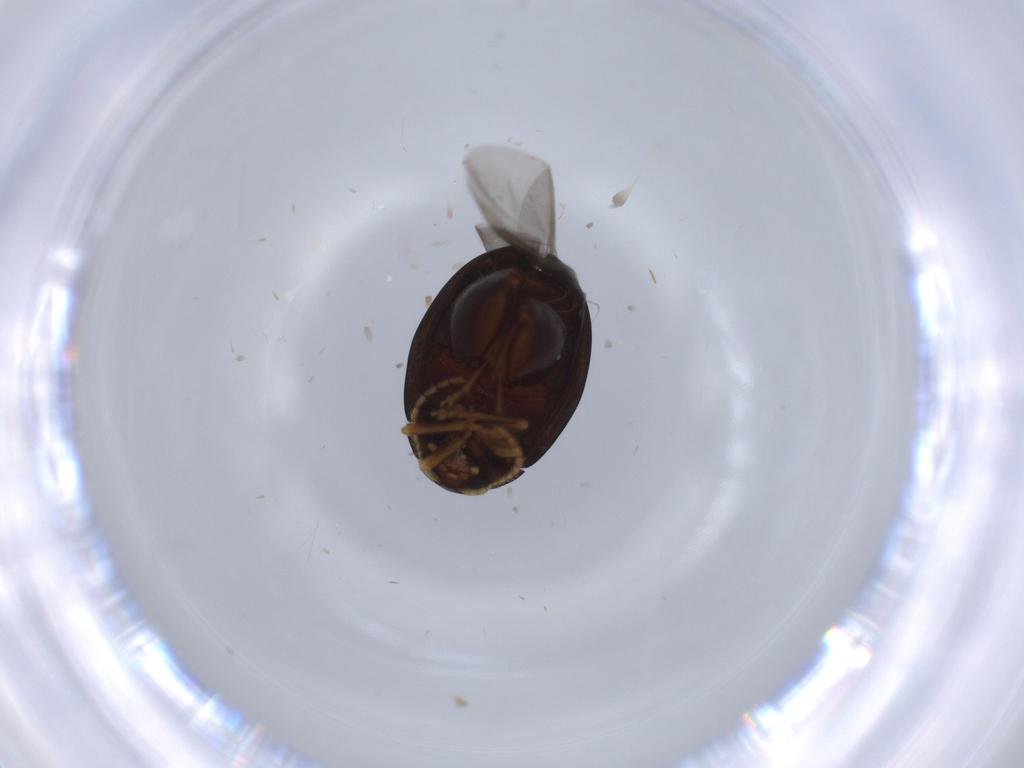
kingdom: Animalia
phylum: Arthropoda
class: Insecta
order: Coleoptera
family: Chrysomelidae
